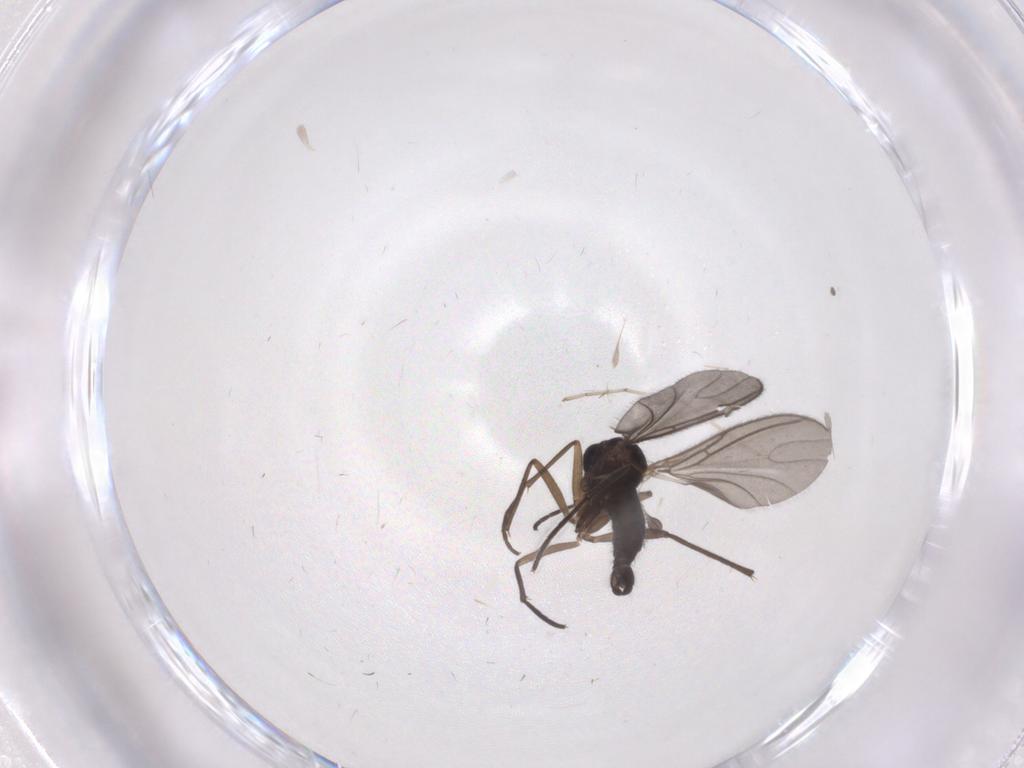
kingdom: Animalia
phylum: Arthropoda
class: Insecta
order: Diptera
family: Sciaridae
